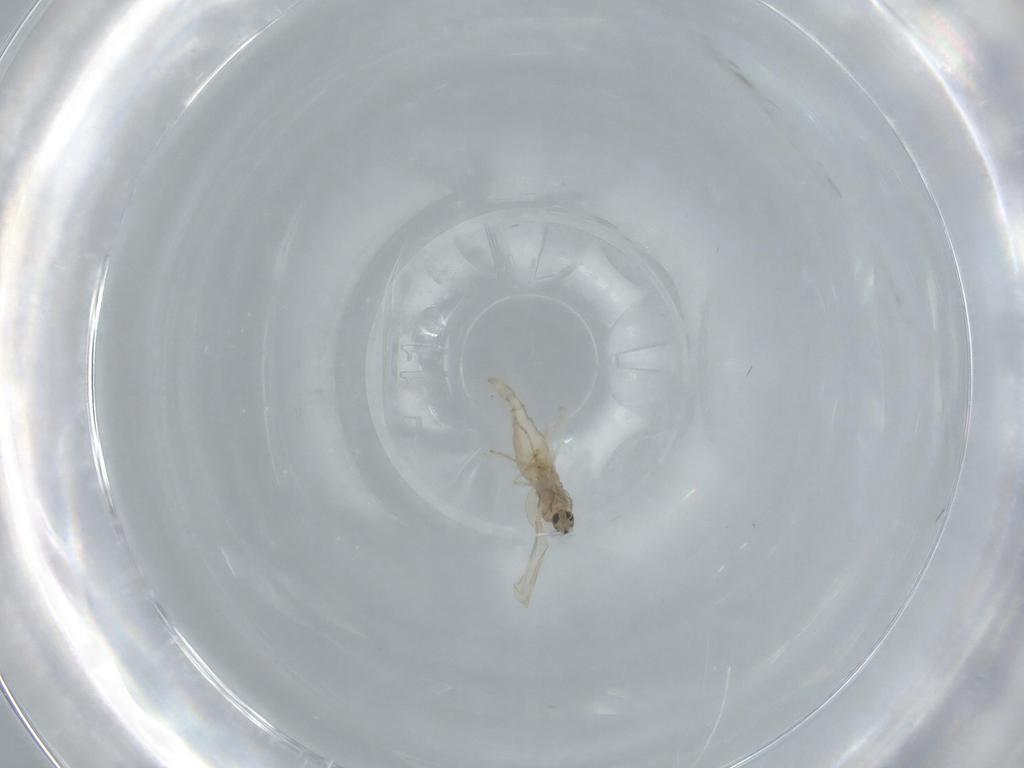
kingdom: Animalia
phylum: Arthropoda
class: Insecta
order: Diptera
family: Cecidomyiidae
